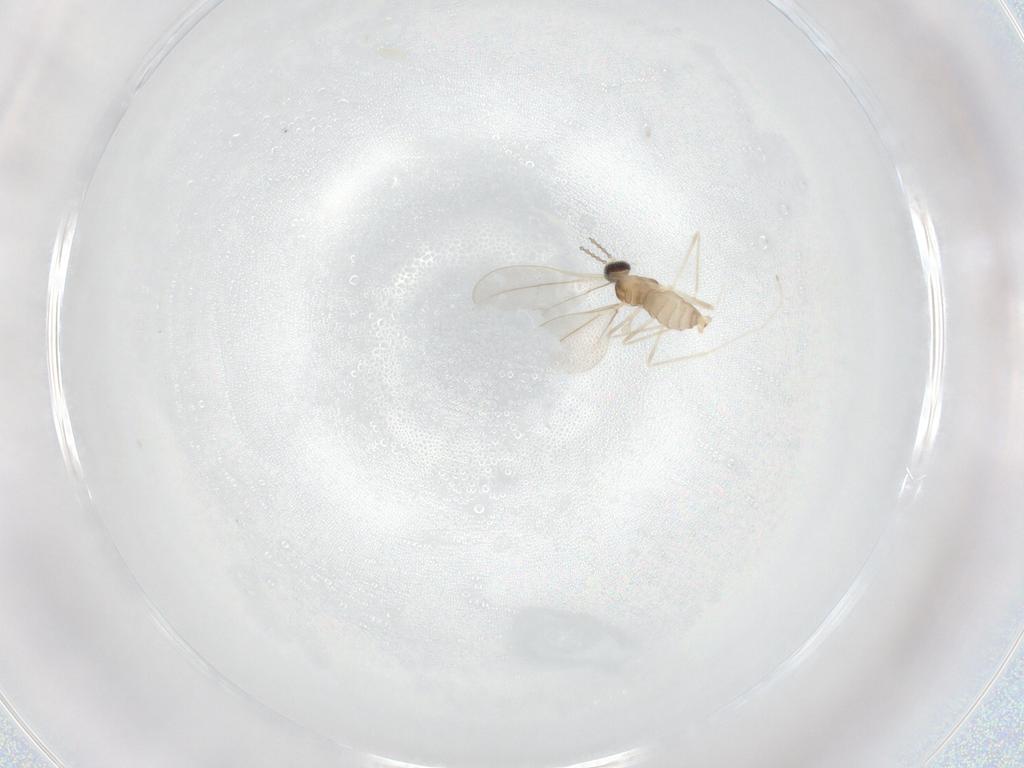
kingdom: Animalia
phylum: Arthropoda
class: Insecta
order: Diptera
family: Cecidomyiidae
